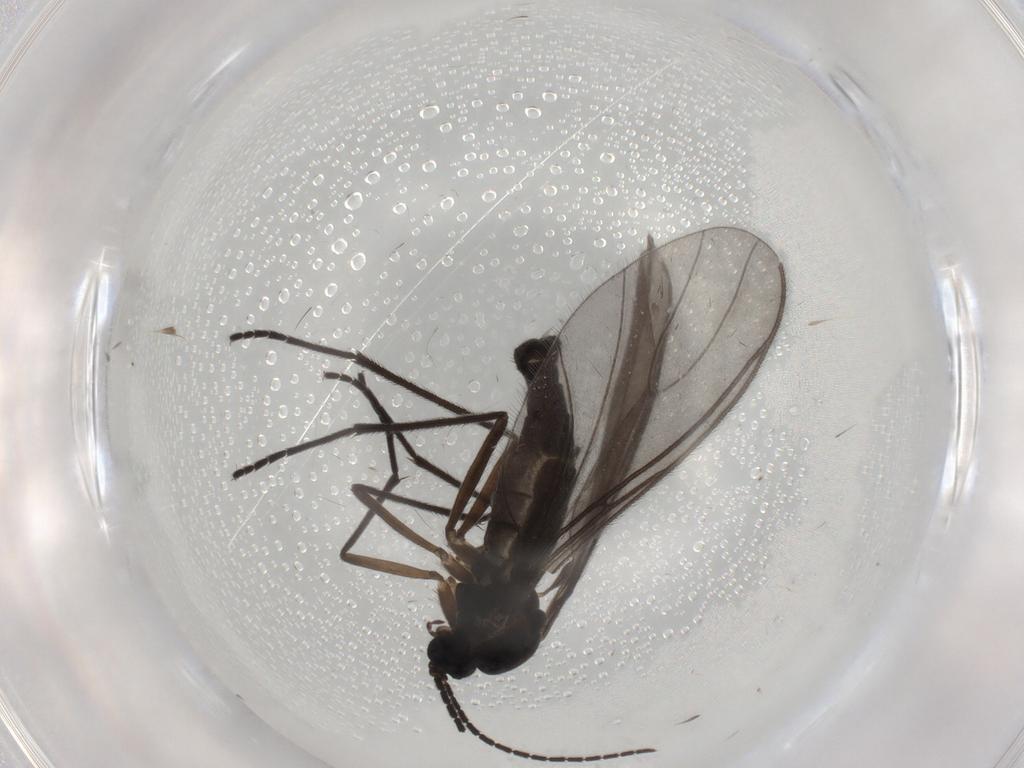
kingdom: Animalia
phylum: Arthropoda
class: Insecta
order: Diptera
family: Sciaridae
